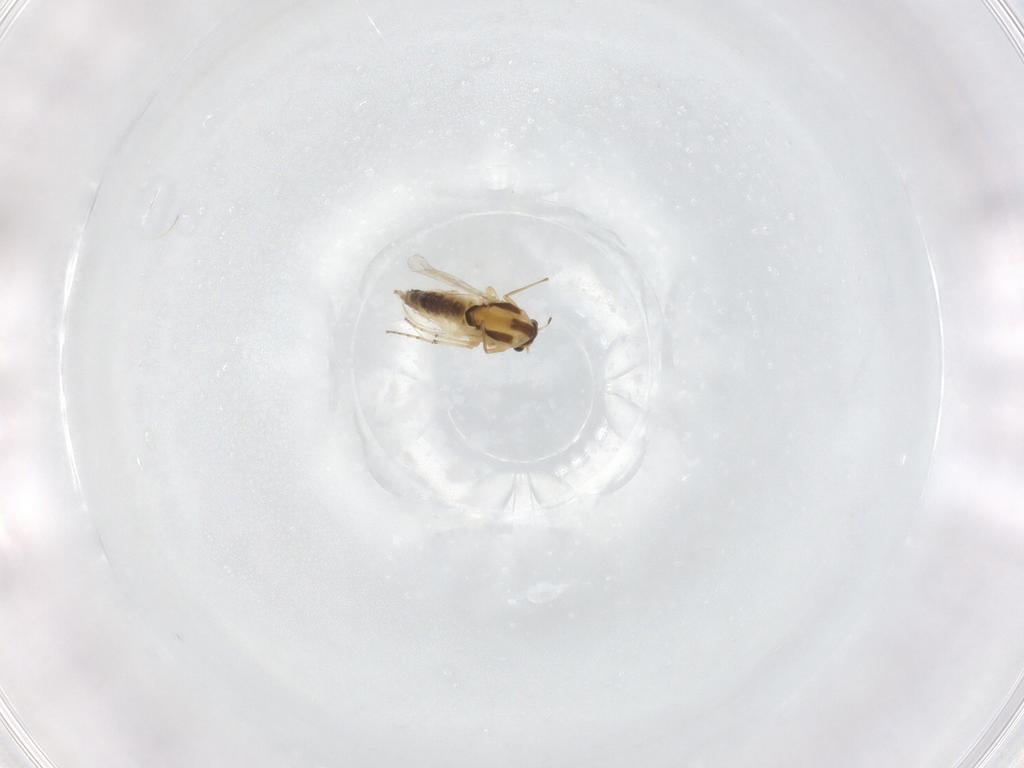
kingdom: Animalia
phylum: Arthropoda
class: Insecta
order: Diptera
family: Chironomidae
